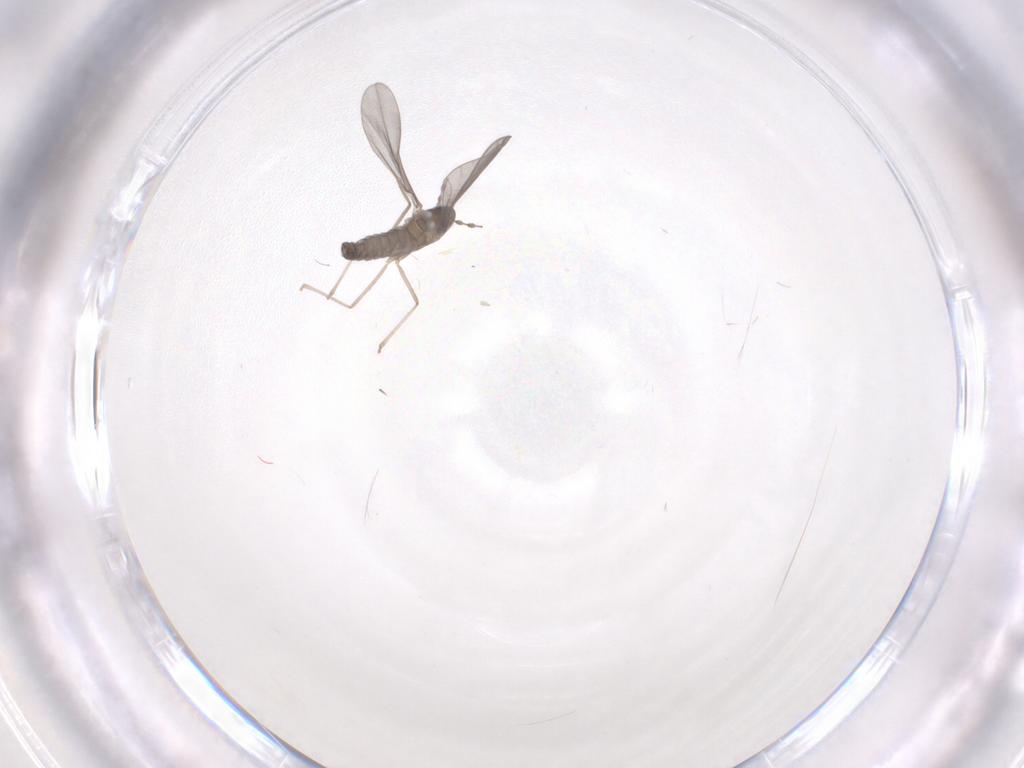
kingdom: Animalia
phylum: Arthropoda
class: Insecta
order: Diptera
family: Cecidomyiidae
